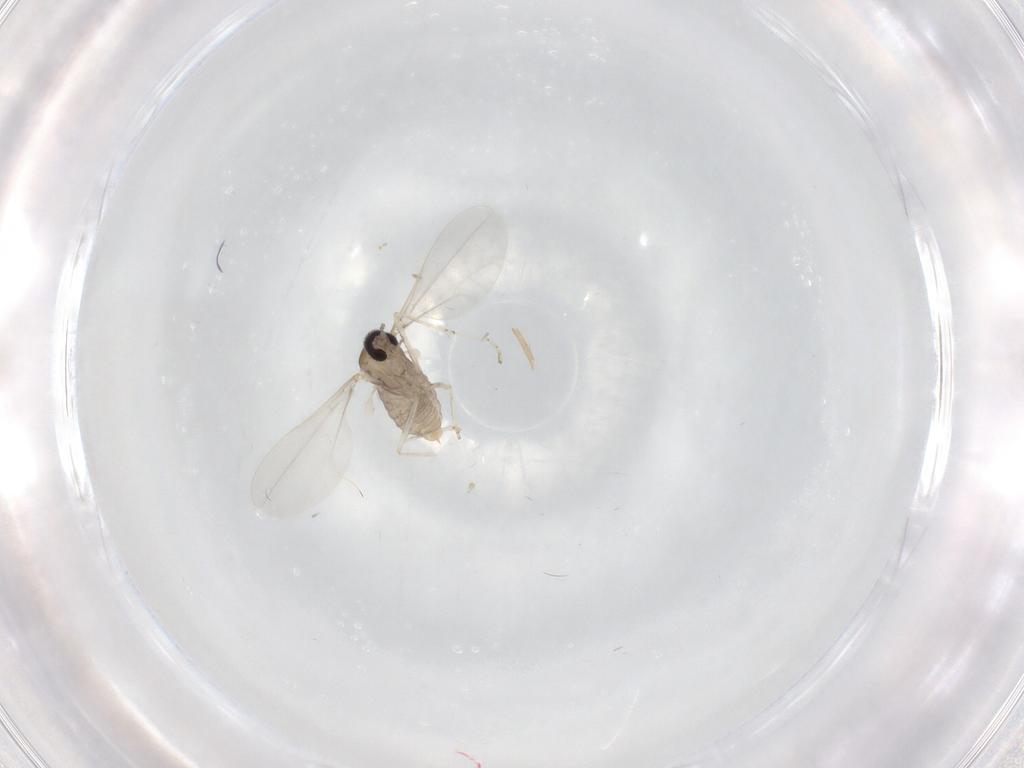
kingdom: Animalia
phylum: Arthropoda
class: Insecta
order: Diptera
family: Cecidomyiidae
